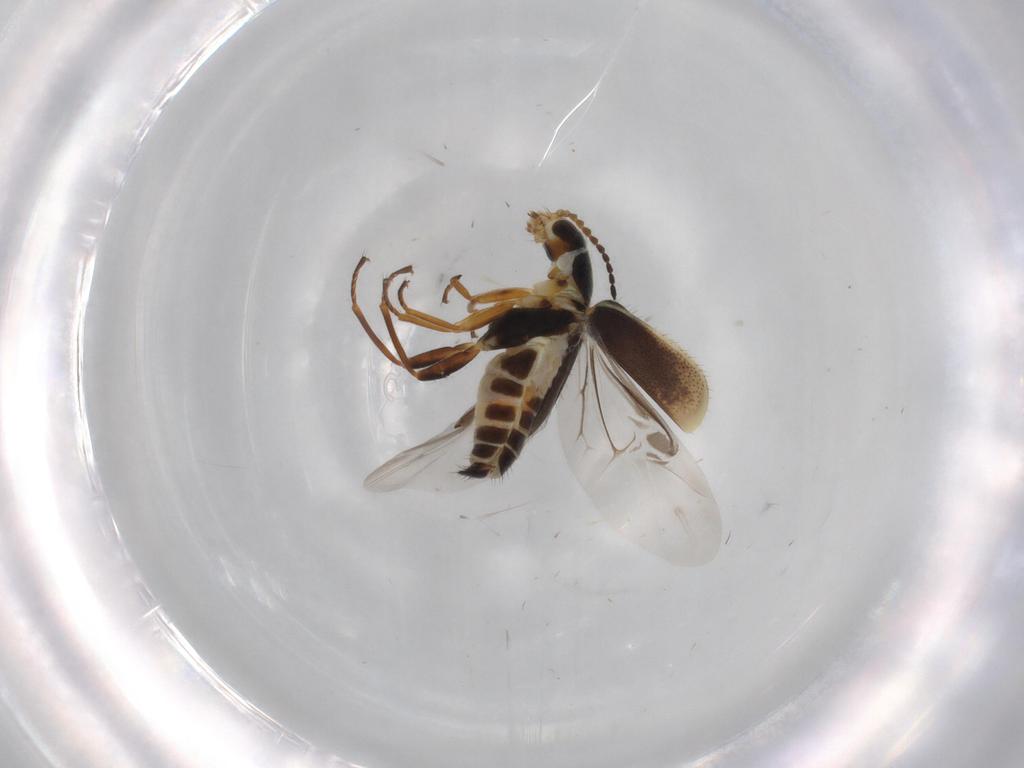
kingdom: Animalia
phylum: Arthropoda
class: Insecta
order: Coleoptera
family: Melyridae
